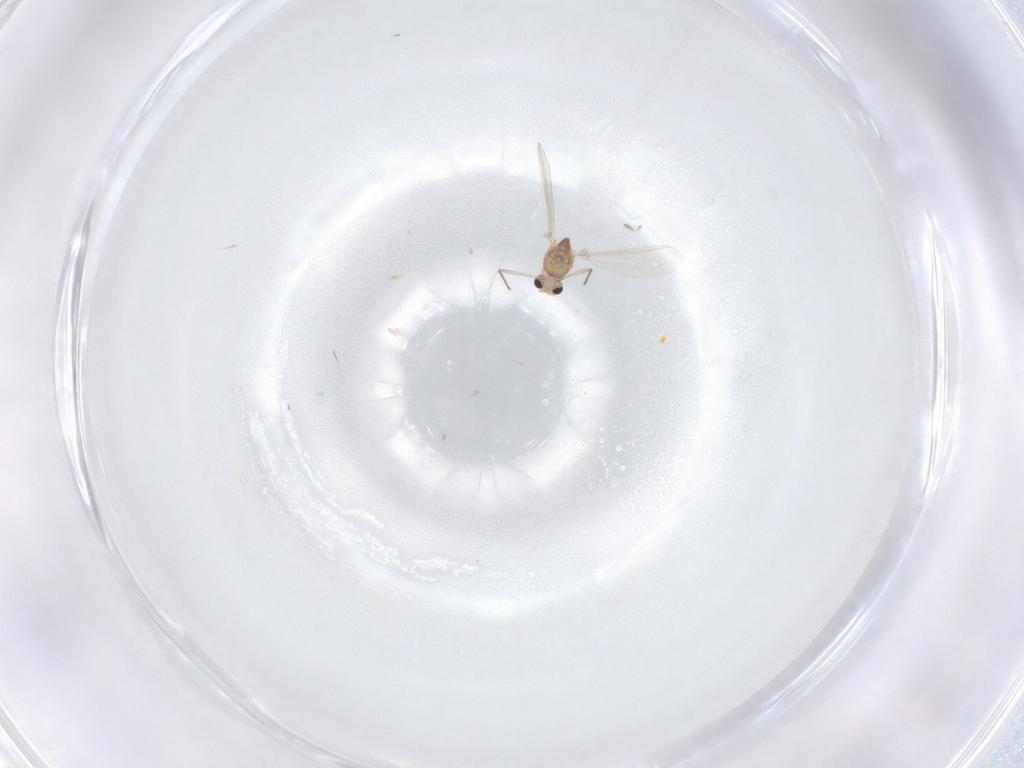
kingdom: Animalia
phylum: Arthropoda
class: Insecta
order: Diptera
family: Chironomidae
